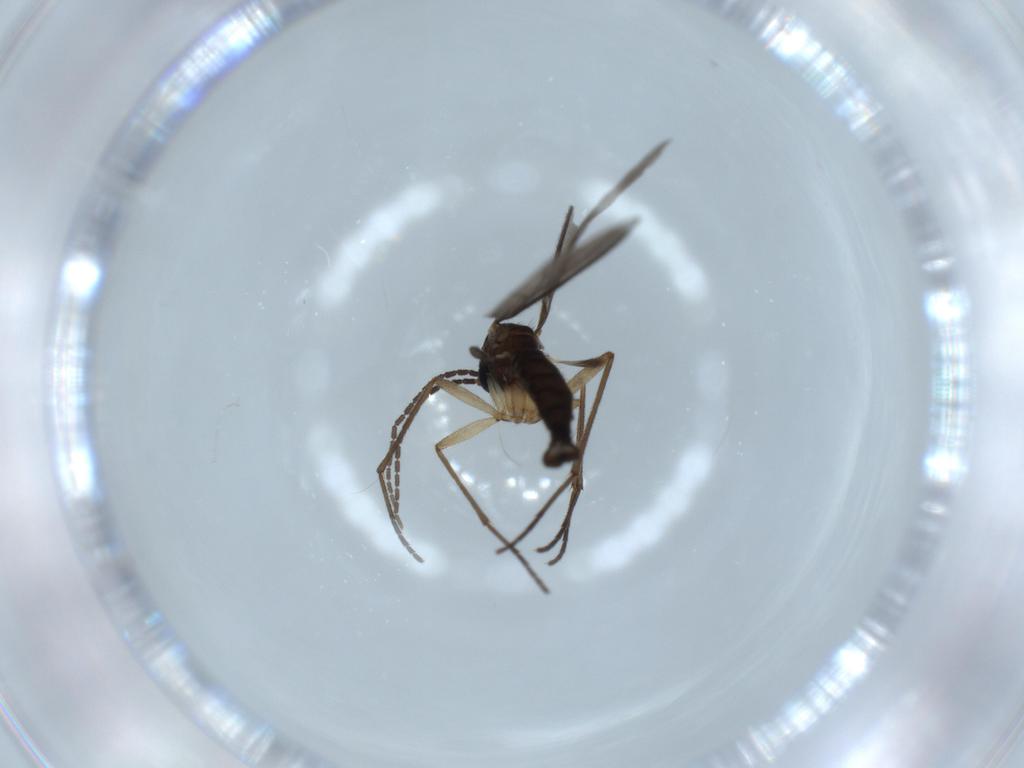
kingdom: Animalia
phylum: Arthropoda
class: Insecta
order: Diptera
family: Sciaridae
